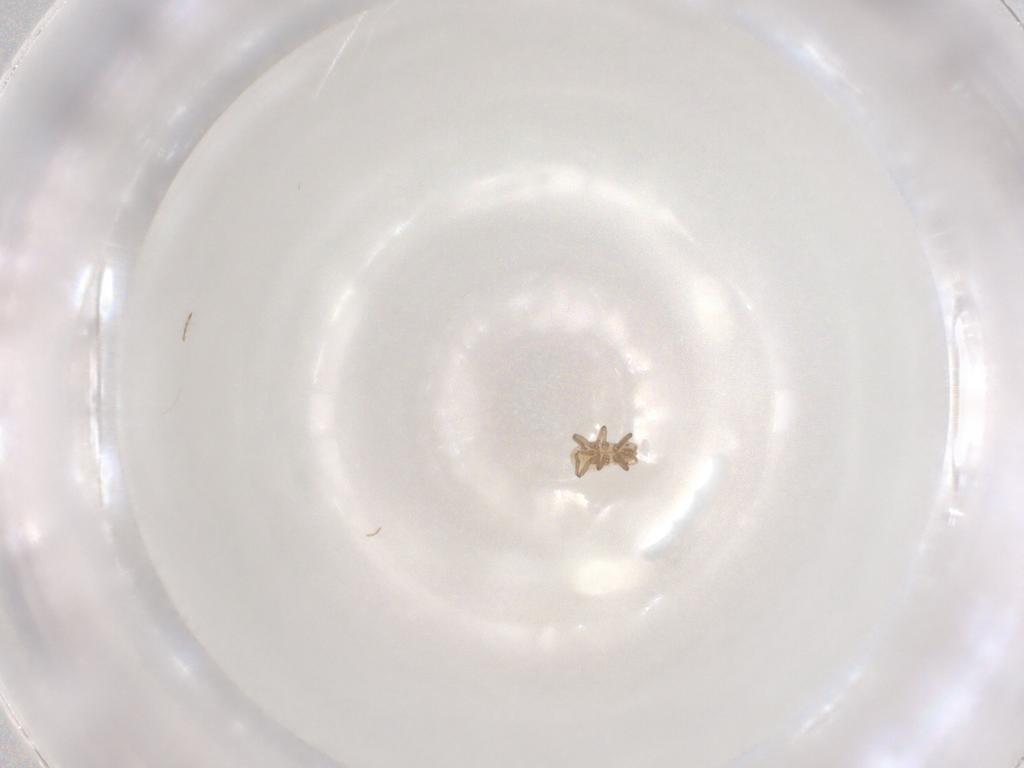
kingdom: Animalia
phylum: Arthropoda
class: Insecta
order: Hemiptera
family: Aphididae
